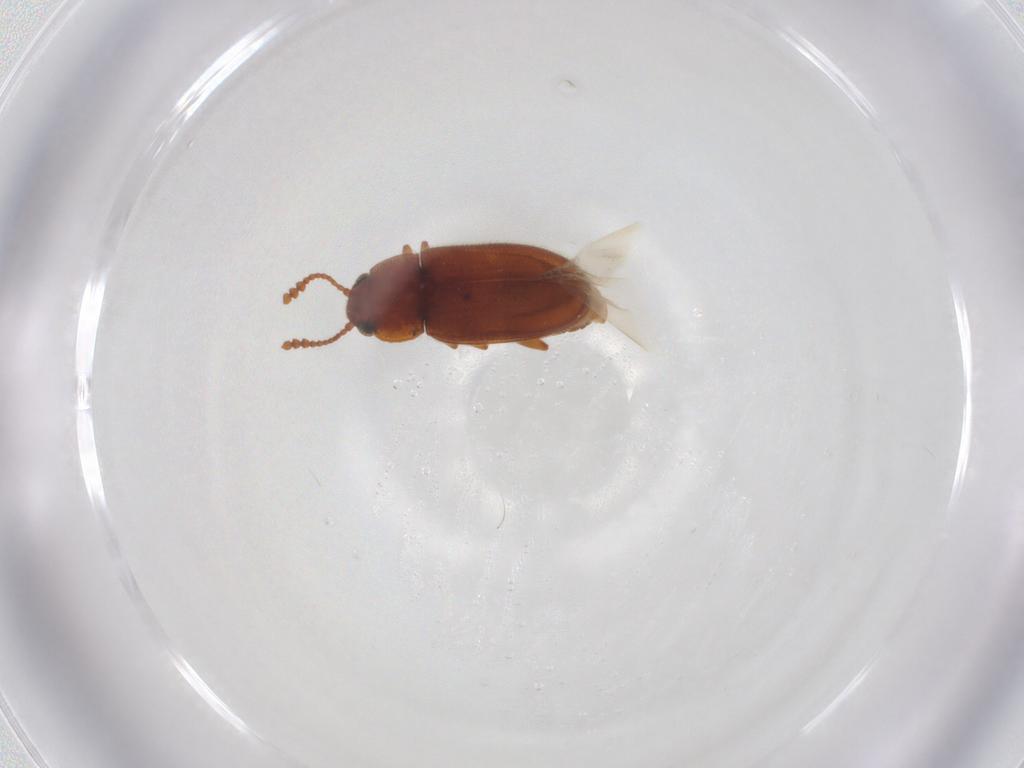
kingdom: Animalia
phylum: Arthropoda
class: Insecta
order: Coleoptera
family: Erotylidae
